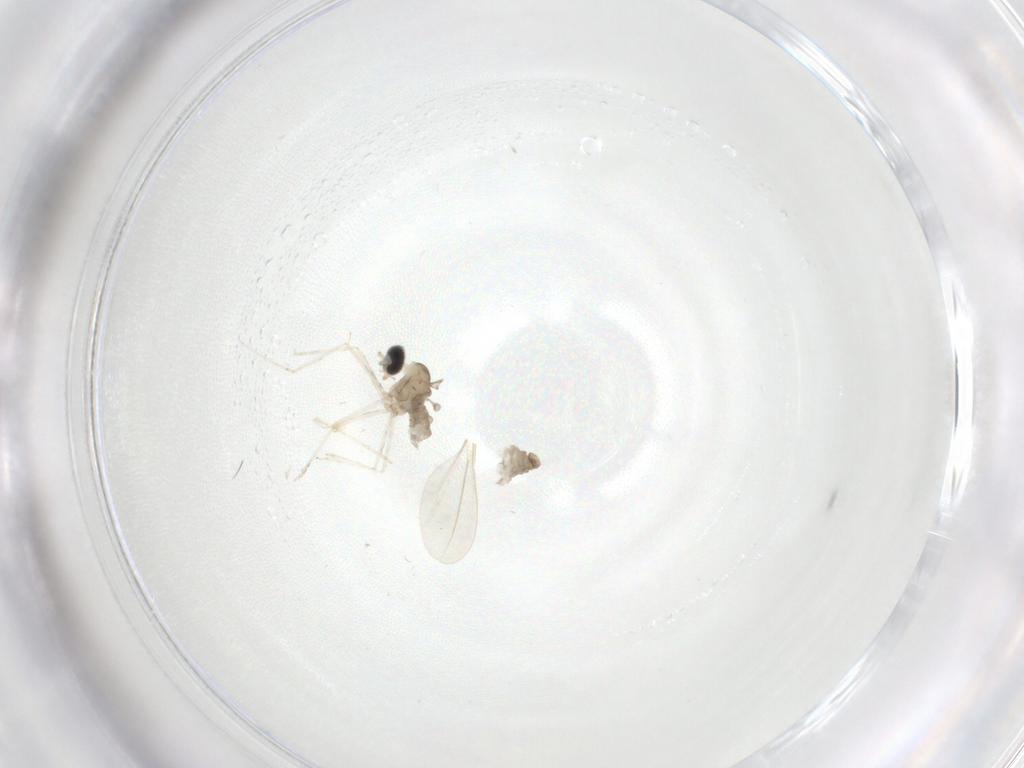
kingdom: Animalia
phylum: Arthropoda
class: Insecta
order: Diptera
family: Cecidomyiidae
